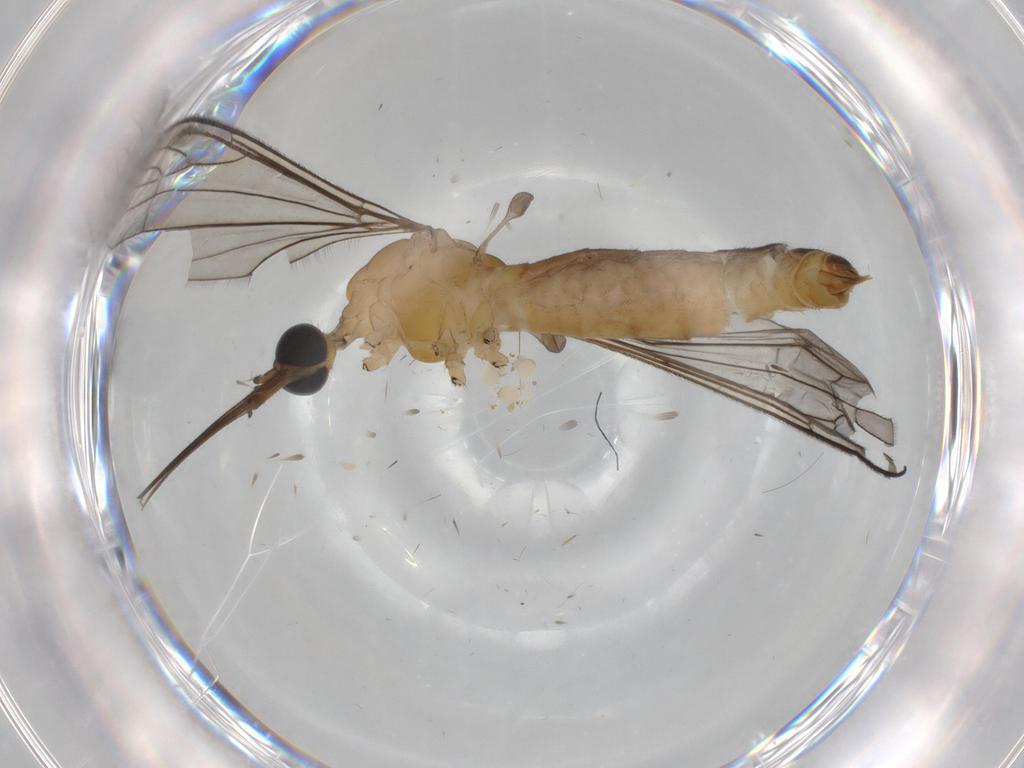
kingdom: Animalia
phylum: Arthropoda
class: Insecta
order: Diptera
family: Cecidomyiidae
